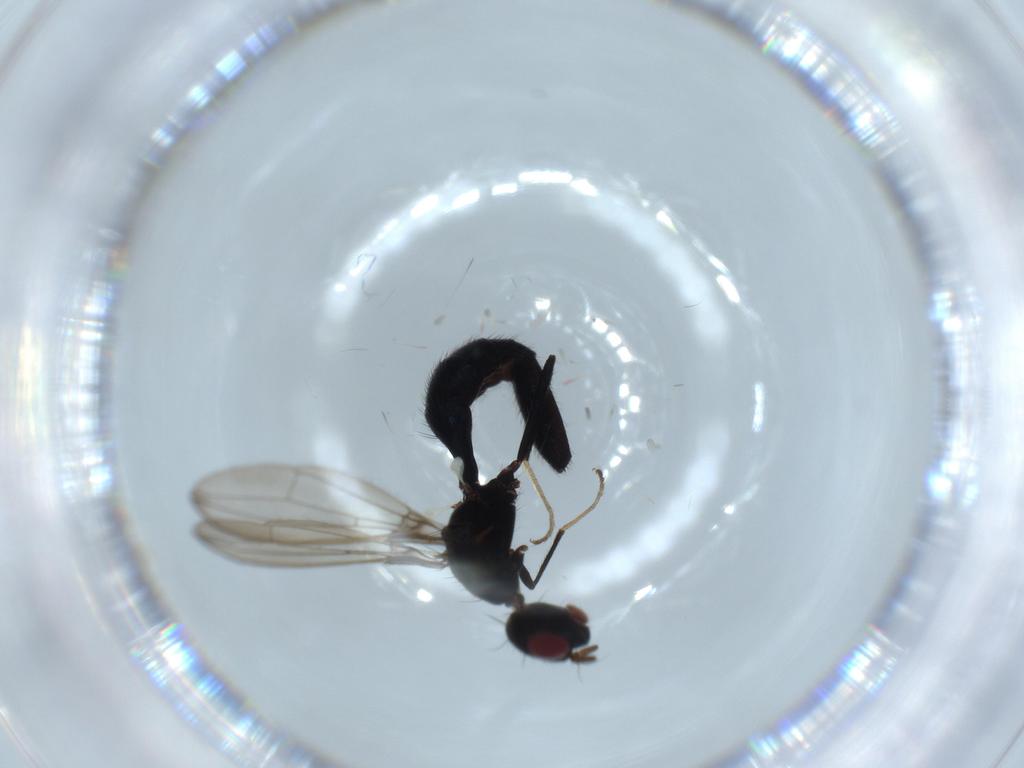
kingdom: Animalia
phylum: Arthropoda
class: Insecta
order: Diptera
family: Richardiidae
